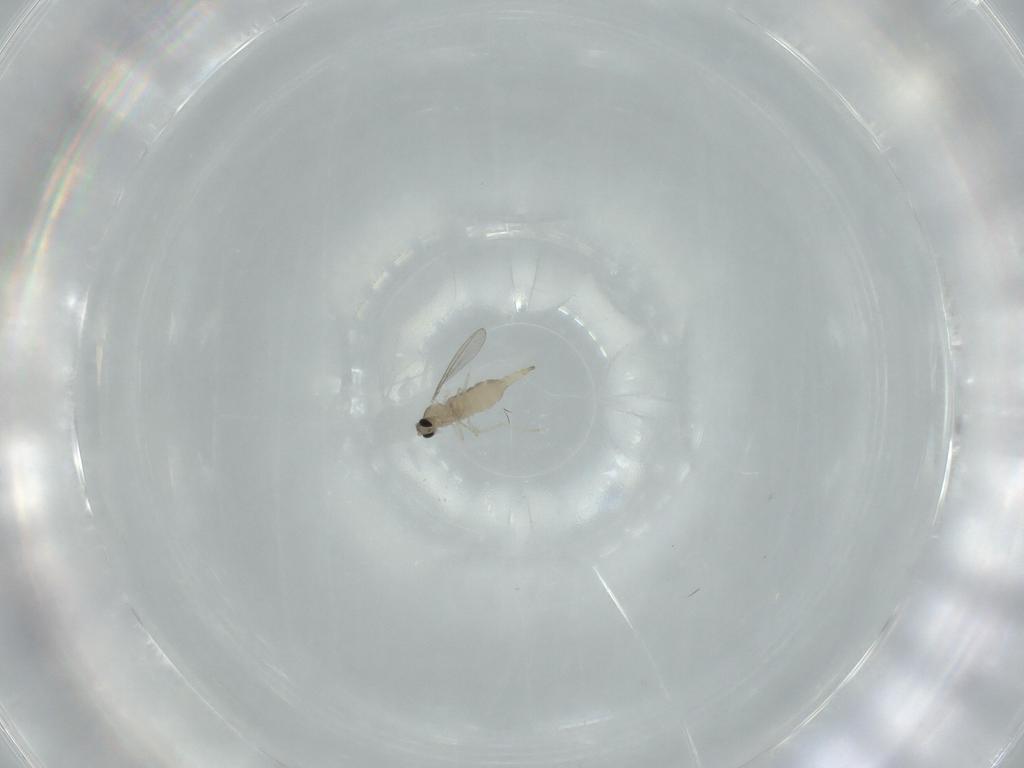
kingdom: Animalia
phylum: Arthropoda
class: Insecta
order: Diptera
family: Cecidomyiidae
